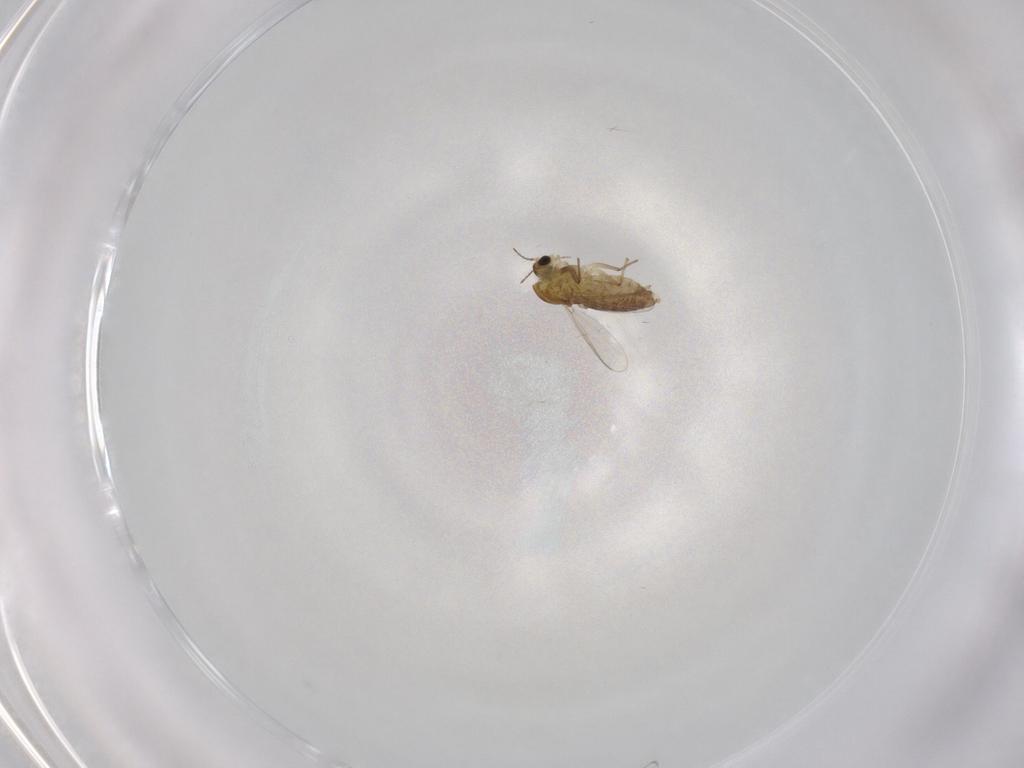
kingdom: Animalia
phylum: Arthropoda
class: Insecta
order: Diptera
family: Chironomidae
